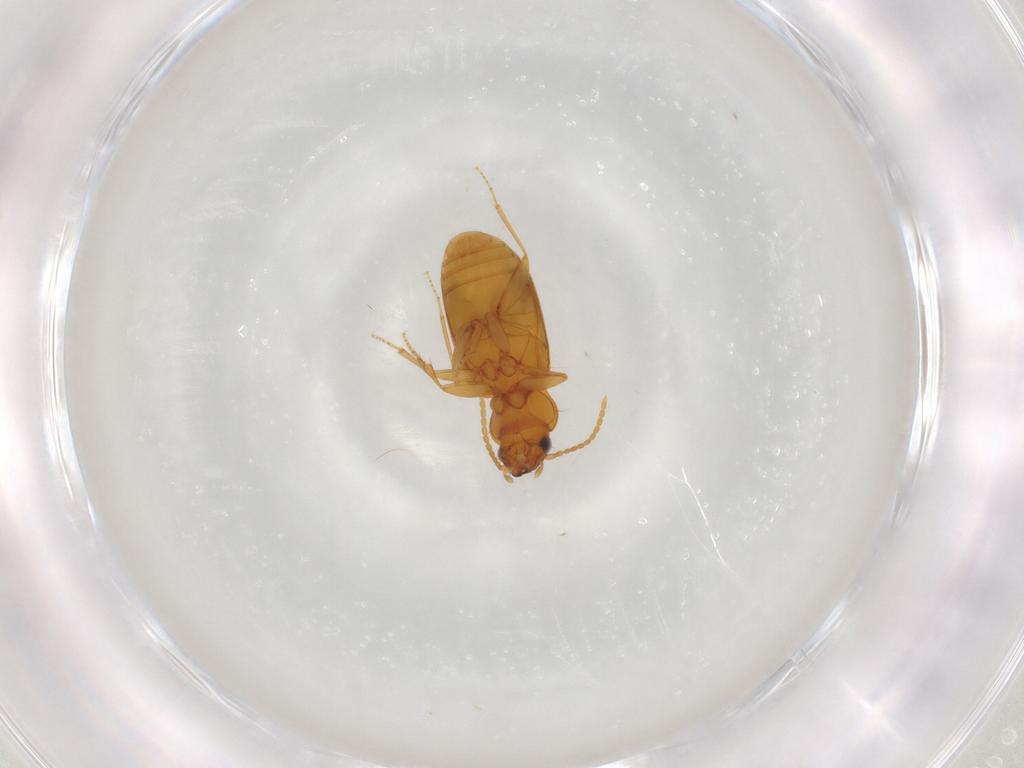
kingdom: Animalia
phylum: Arthropoda
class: Insecta
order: Coleoptera
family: Carabidae
